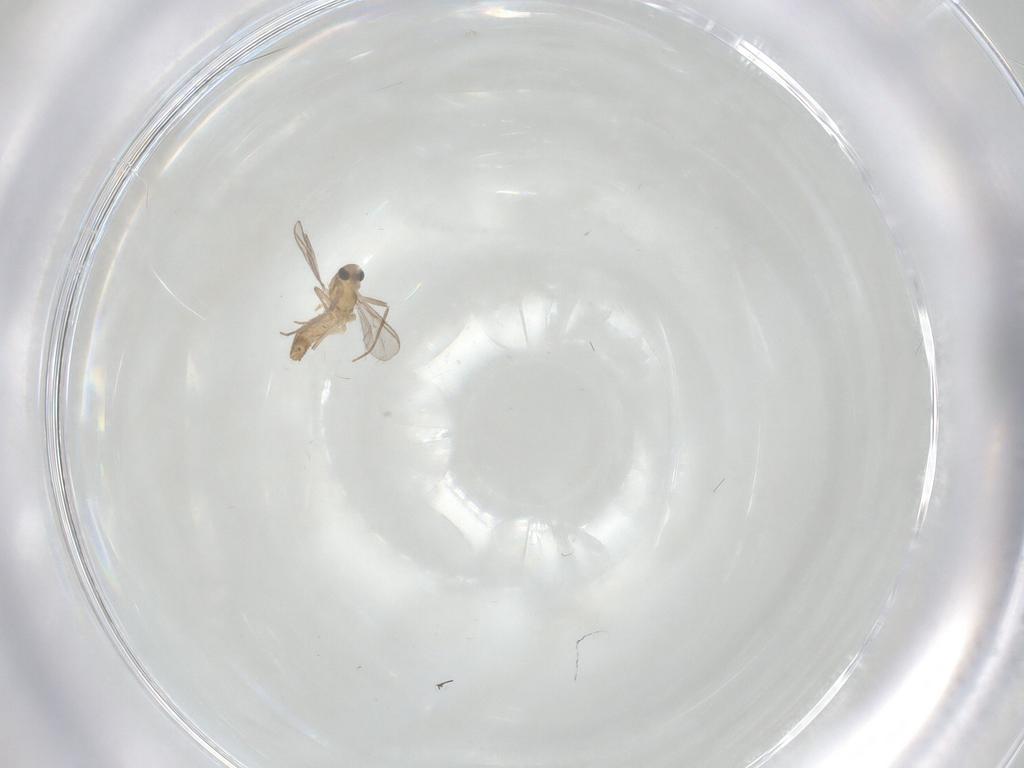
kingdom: Animalia
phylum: Arthropoda
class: Insecta
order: Diptera
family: Chironomidae
